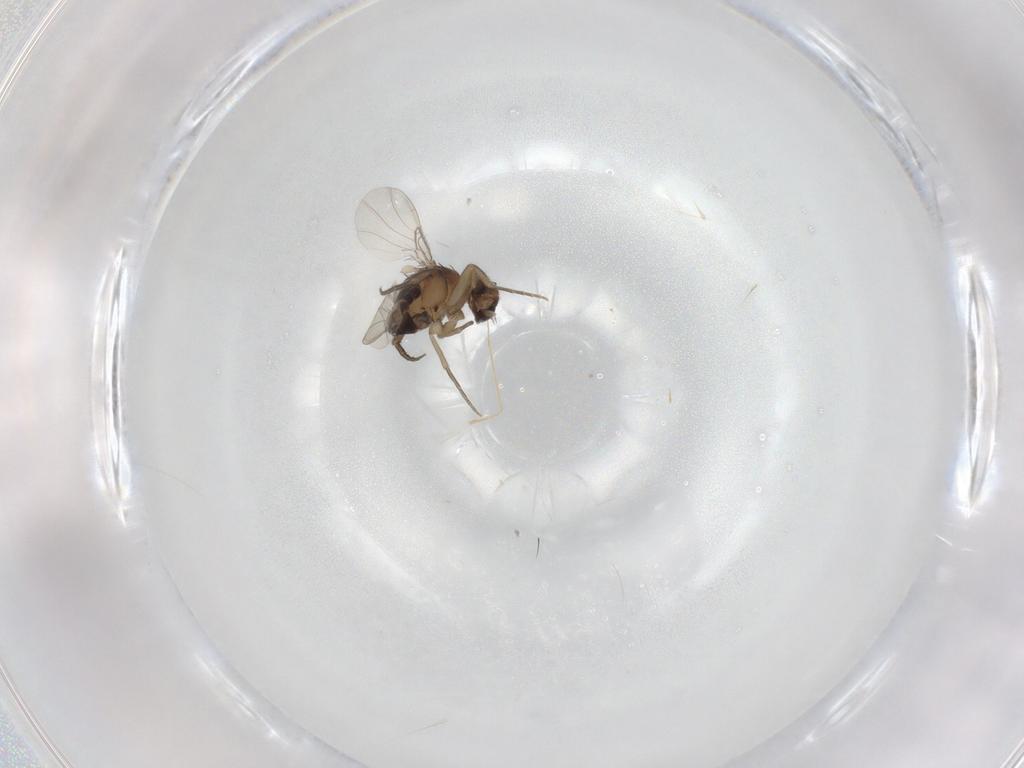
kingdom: Animalia
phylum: Arthropoda
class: Insecta
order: Diptera
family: Phoridae
